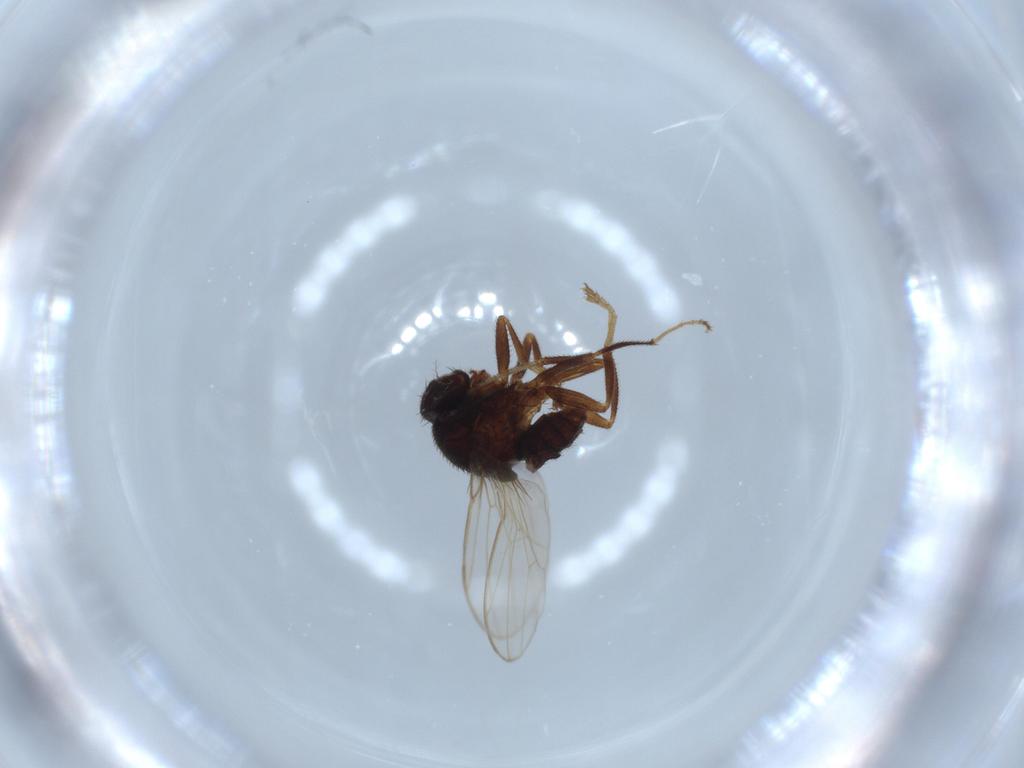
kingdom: Animalia
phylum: Arthropoda
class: Insecta
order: Diptera
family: Drosophilidae
